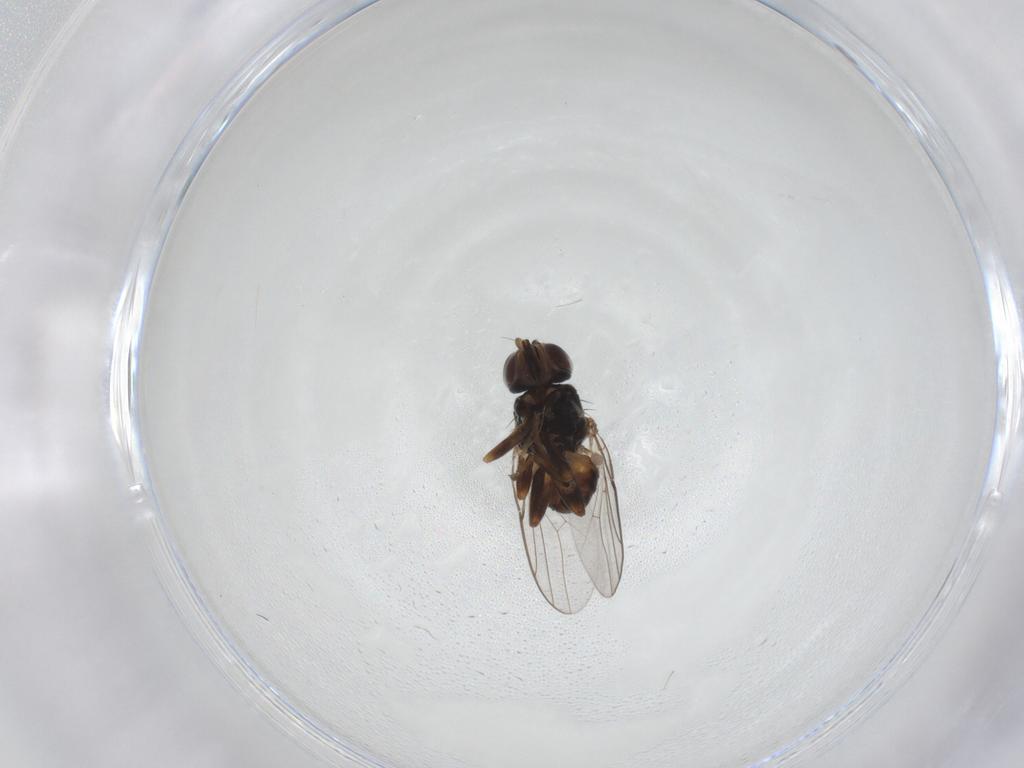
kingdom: Animalia
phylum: Arthropoda
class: Insecta
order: Diptera
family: Chloropidae
